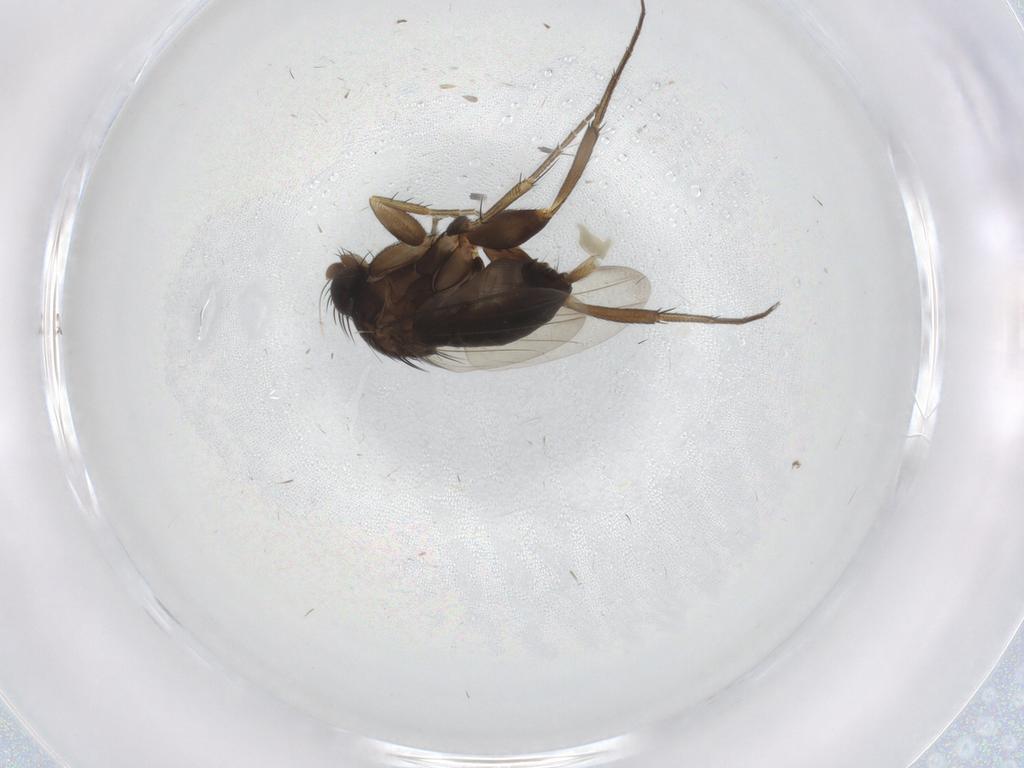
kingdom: Animalia
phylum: Arthropoda
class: Insecta
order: Diptera
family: Phoridae
